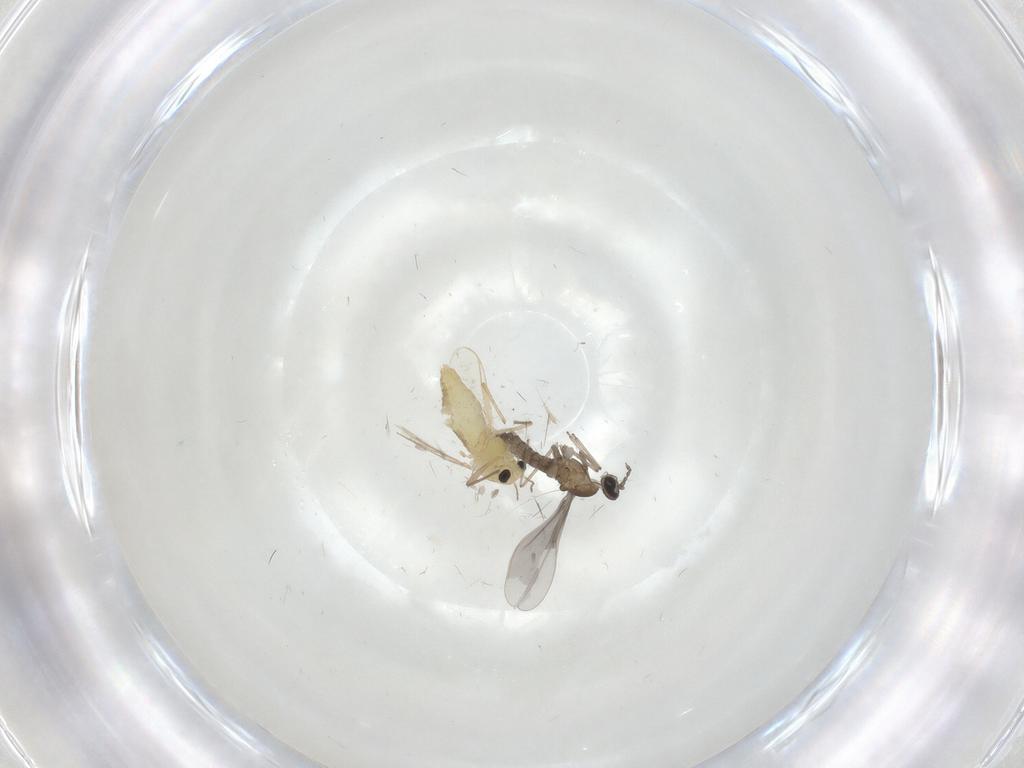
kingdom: Animalia
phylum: Arthropoda
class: Insecta
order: Diptera
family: Chironomidae
